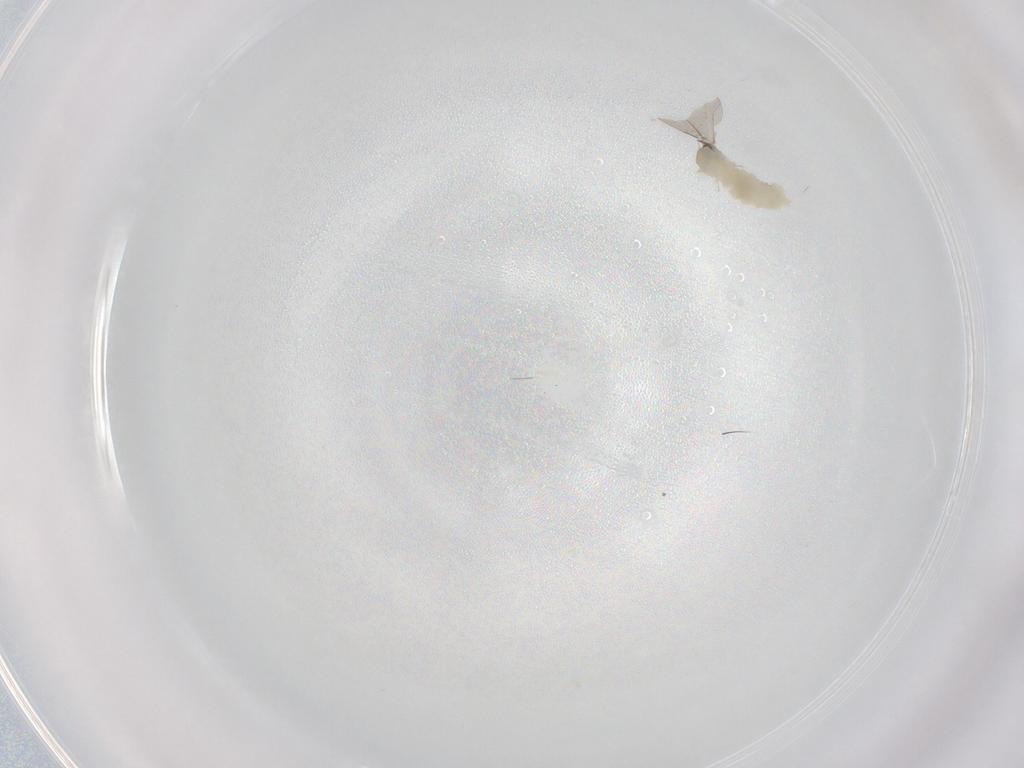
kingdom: Animalia
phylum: Arthropoda
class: Insecta
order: Diptera
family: Cecidomyiidae
